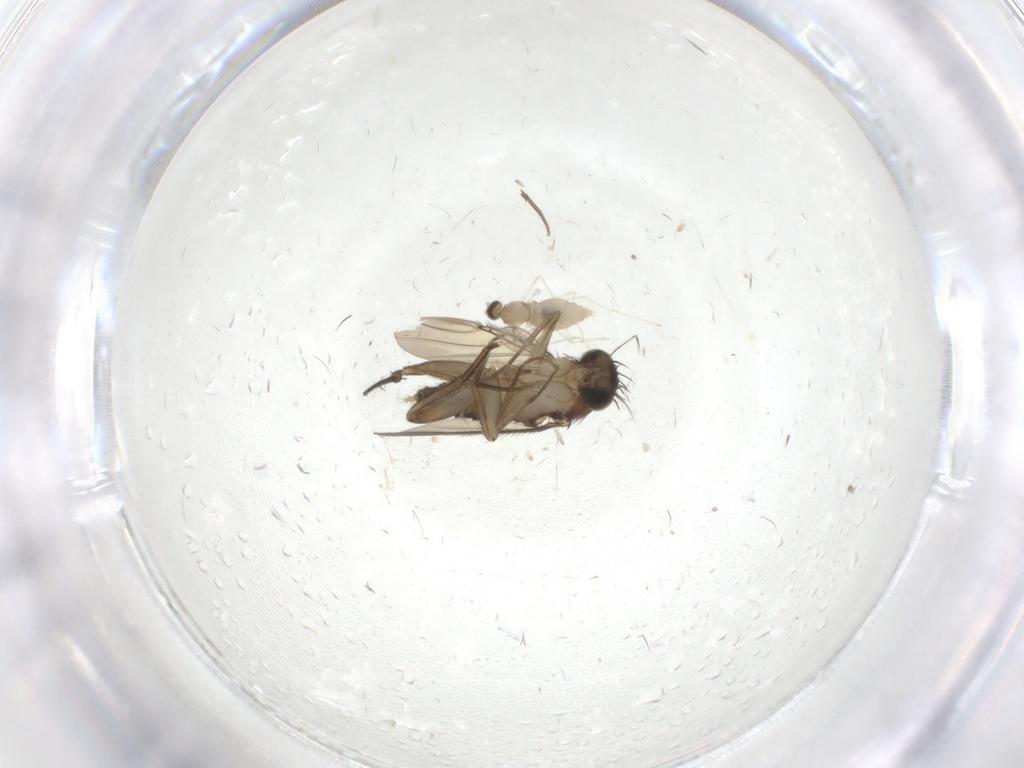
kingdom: Animalia
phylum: Arthropoda
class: Insecta
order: Diptera
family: Phoridae
